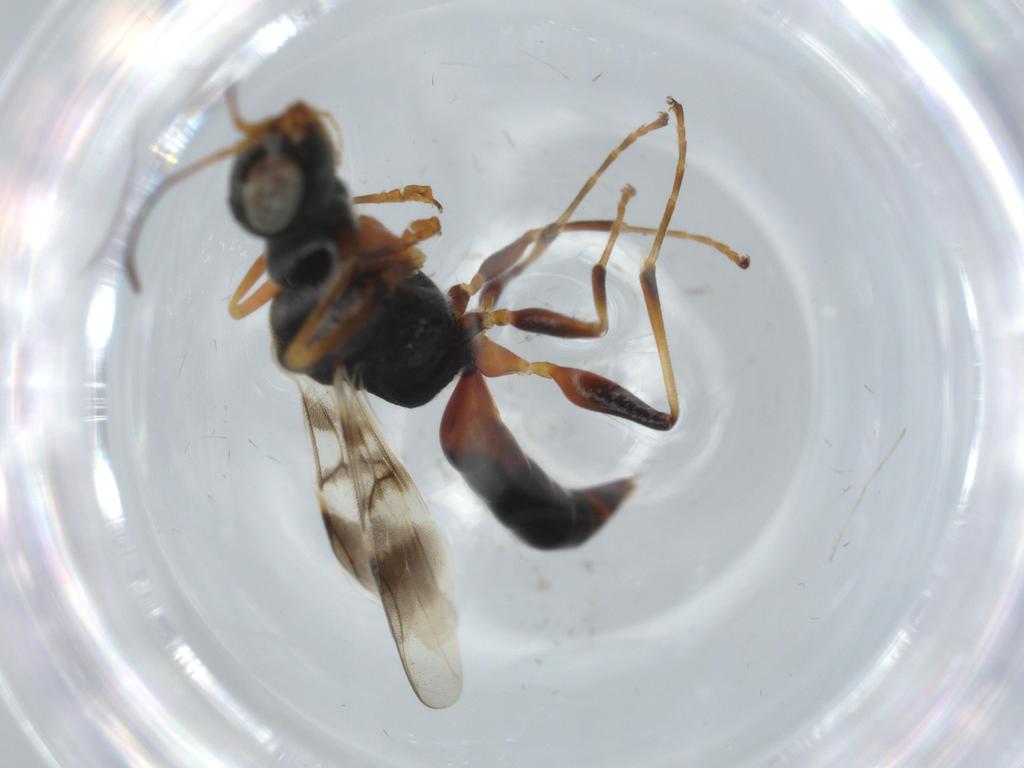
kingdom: Animalia
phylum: Arthropoda
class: Insecta
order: Hymenoptera
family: Dryinidae
